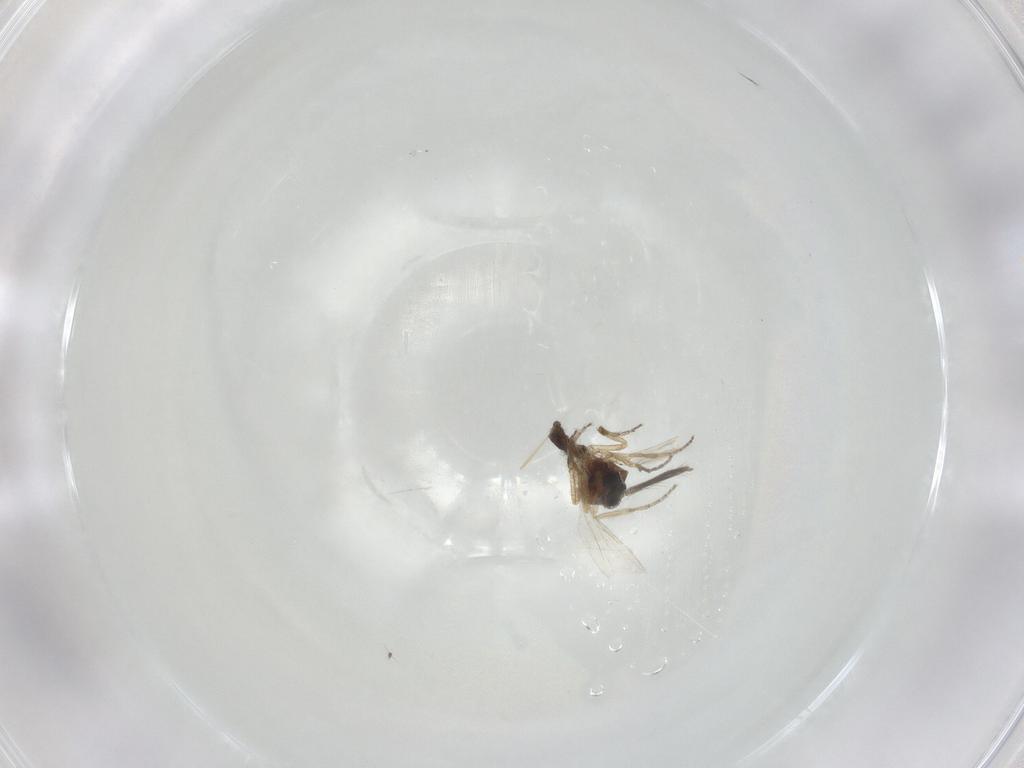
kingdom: Animalia
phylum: Arthropoda
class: Insecta
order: Diptera
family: Ceratopogonidae
